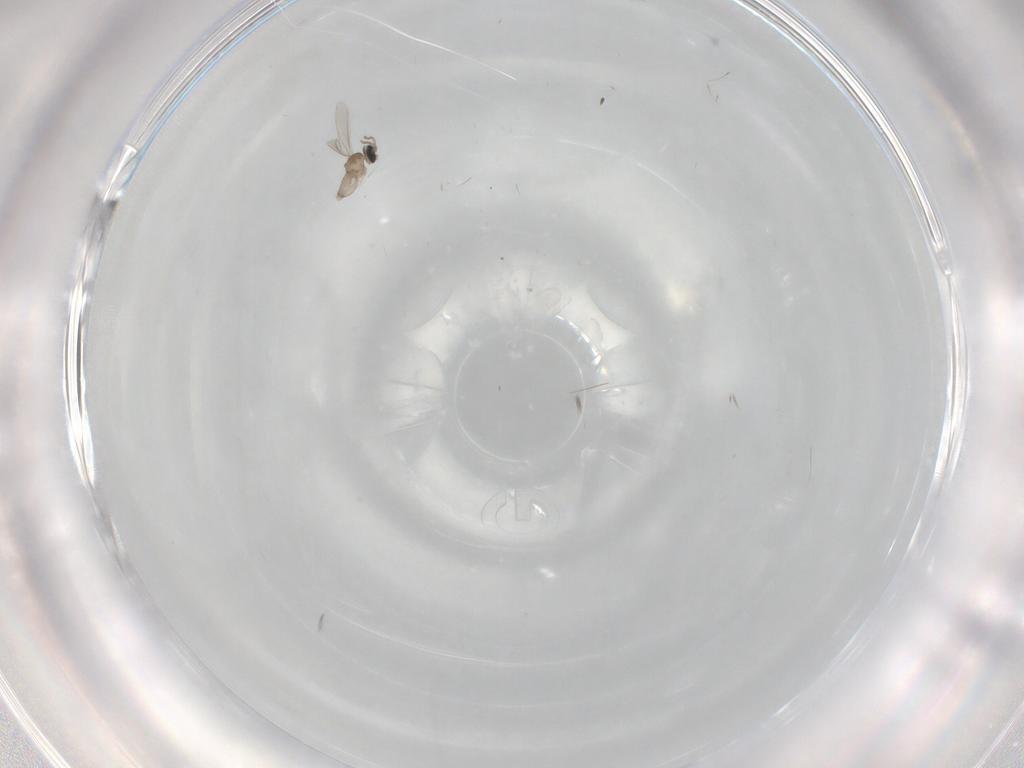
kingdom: Animalia
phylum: Arthropoda
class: Insecta
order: Diptera
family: Cecidomyiidae
